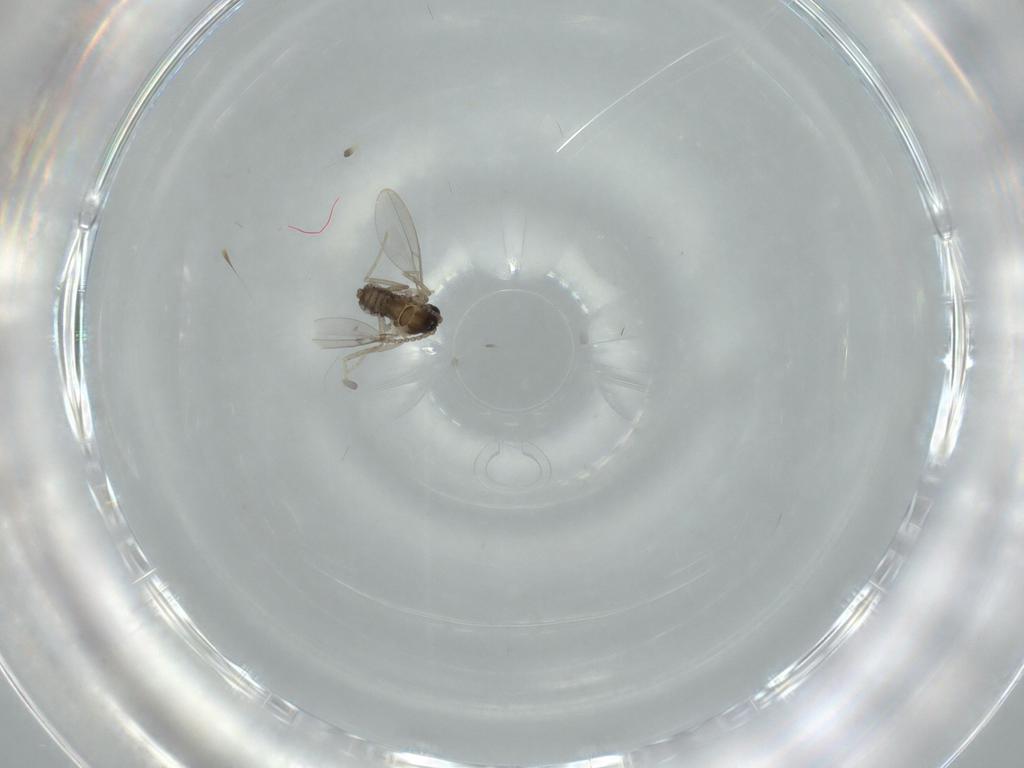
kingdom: Animalia
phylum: Arthropoda
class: Insecta
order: Diptera
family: Cecidomyiidae
